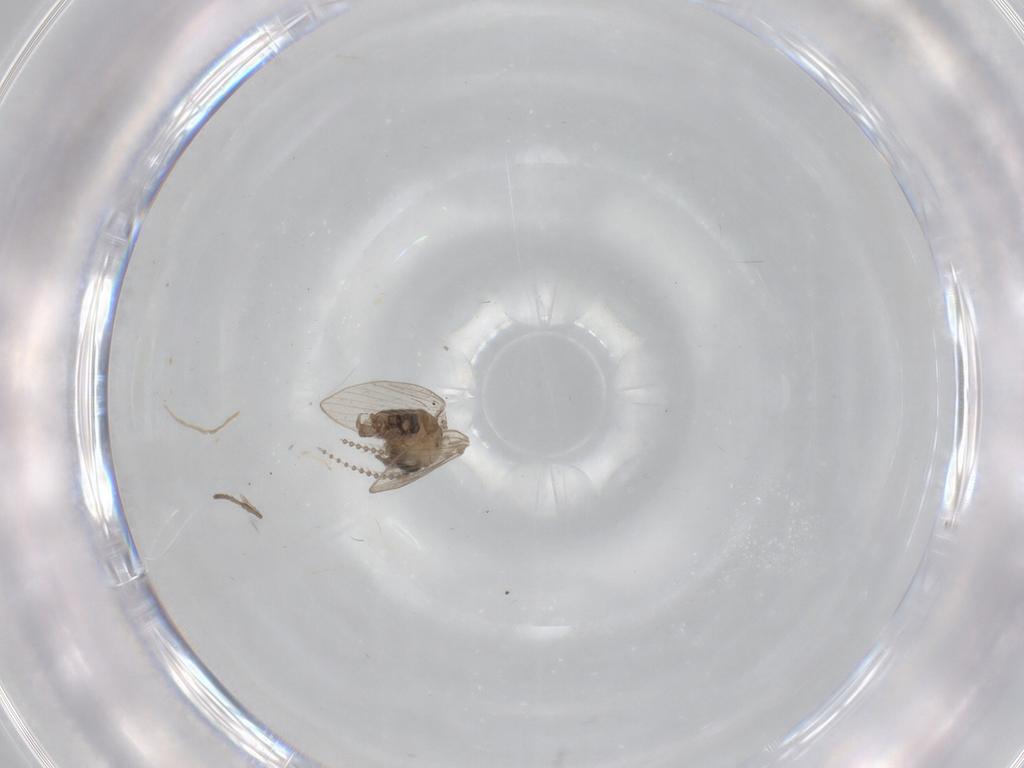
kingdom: Animalia
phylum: Arthropoda
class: Insecta
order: Diptera
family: Psychodidae
